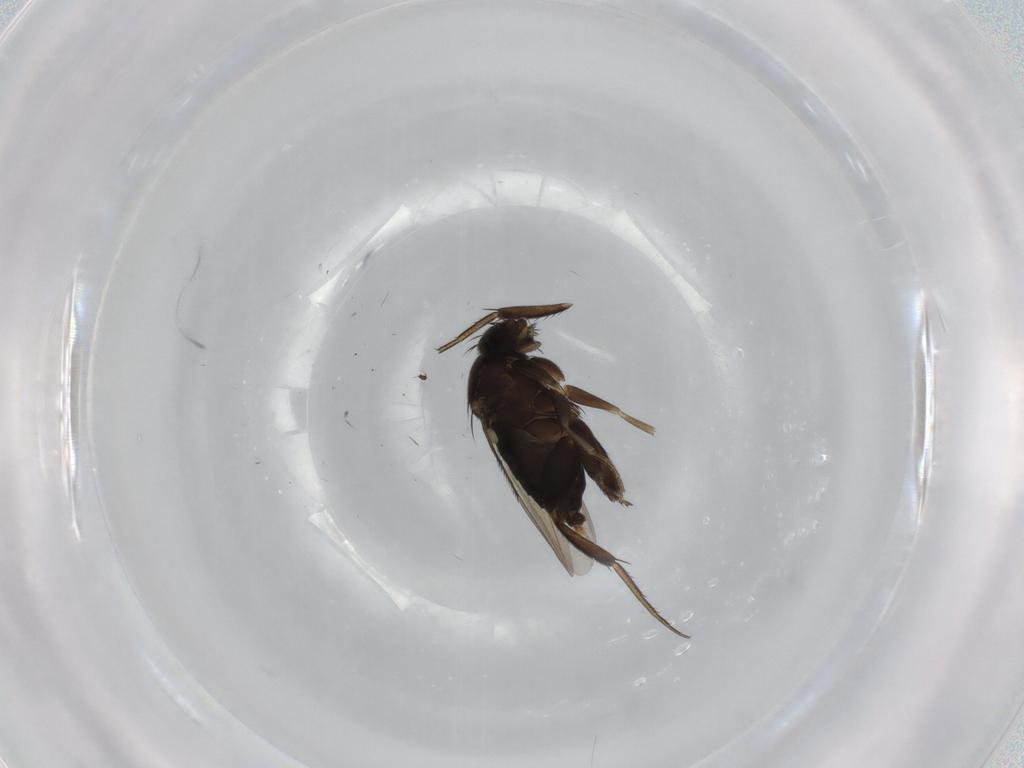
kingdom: Animalia
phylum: Arthropoda
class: Insecta
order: Diptera
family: Phoridae
